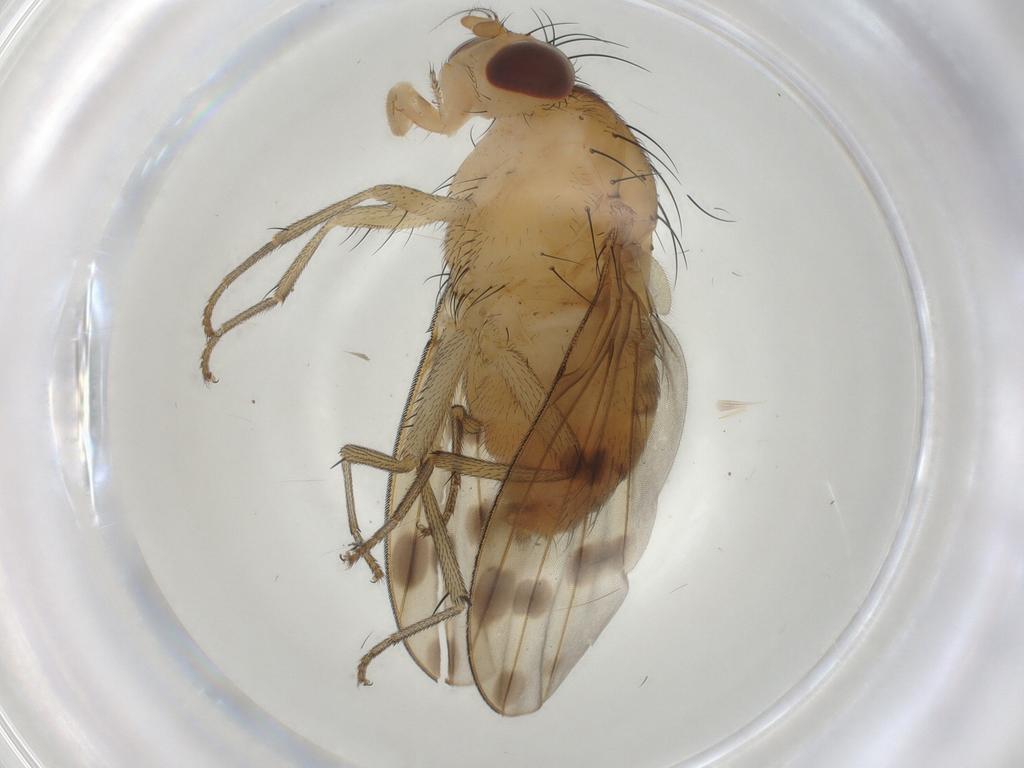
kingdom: Animalia
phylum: Arthropoda
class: Insecta
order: Diptera
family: Lauxaniidae
